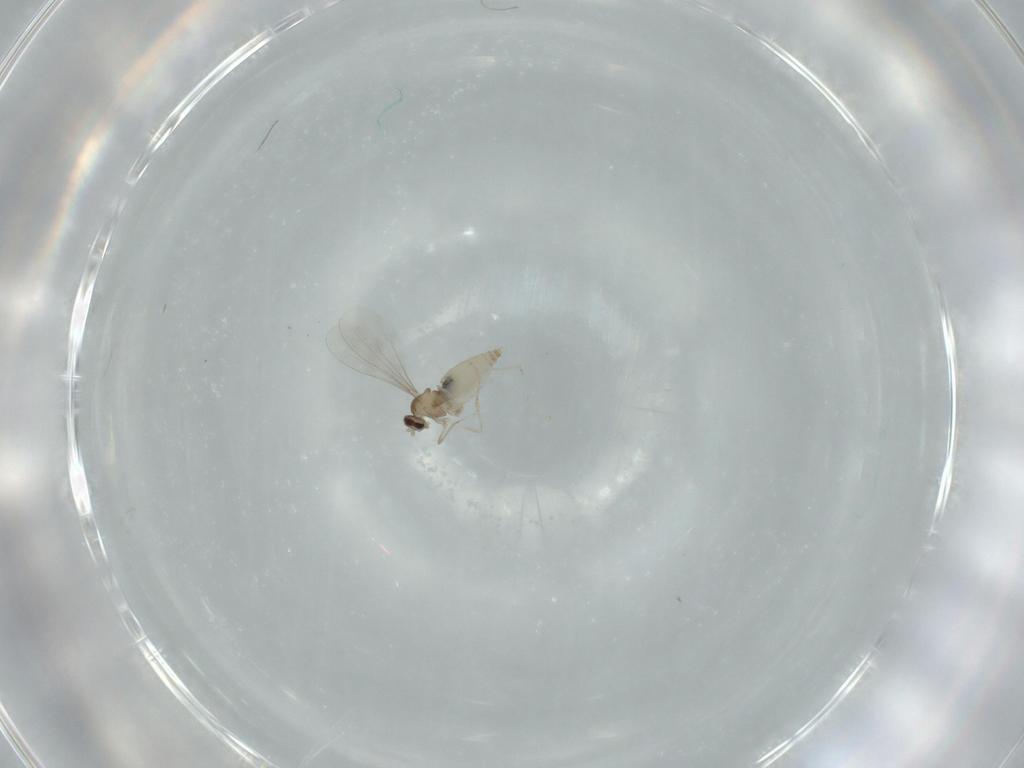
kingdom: Animalia
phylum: Arthropoda
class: Insecta
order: Diptera
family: Cecidomyiidae
